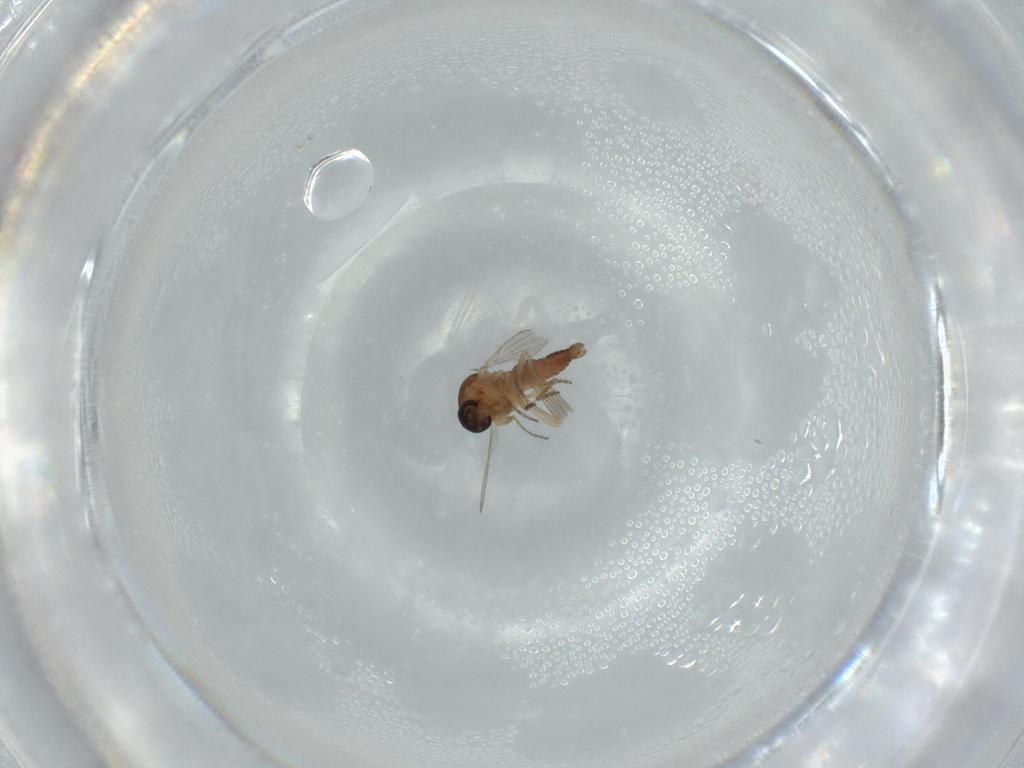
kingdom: Animalia
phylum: Arthropoda
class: Insecta
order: Diptera
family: Ceratopogonidae
